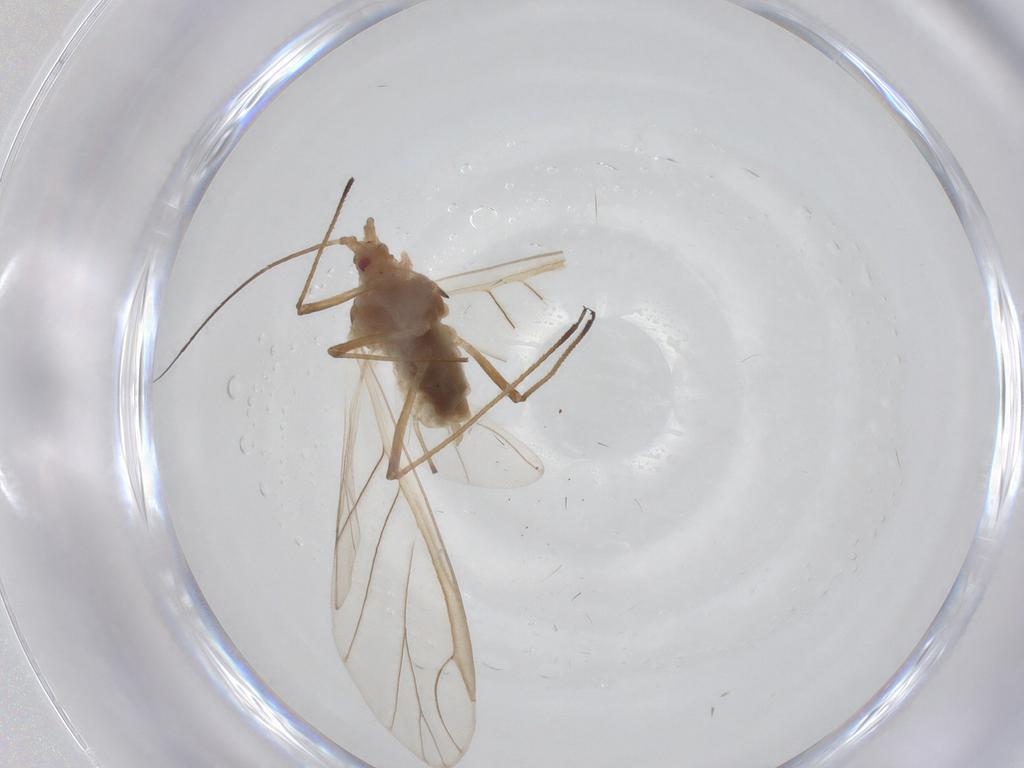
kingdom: Animalia
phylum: Arthropoda
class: Insecta
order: Hemiptera
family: Aphididae
